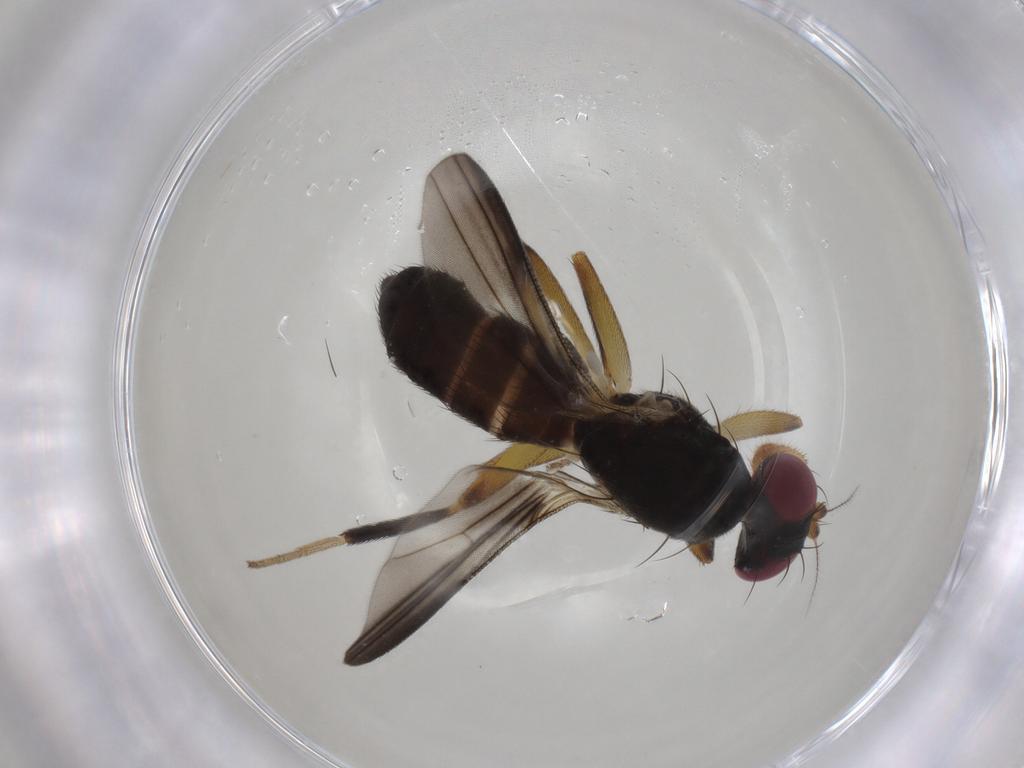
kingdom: Animalia
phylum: Arthropoda
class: Insecta
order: Diptera
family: Clusiidae
